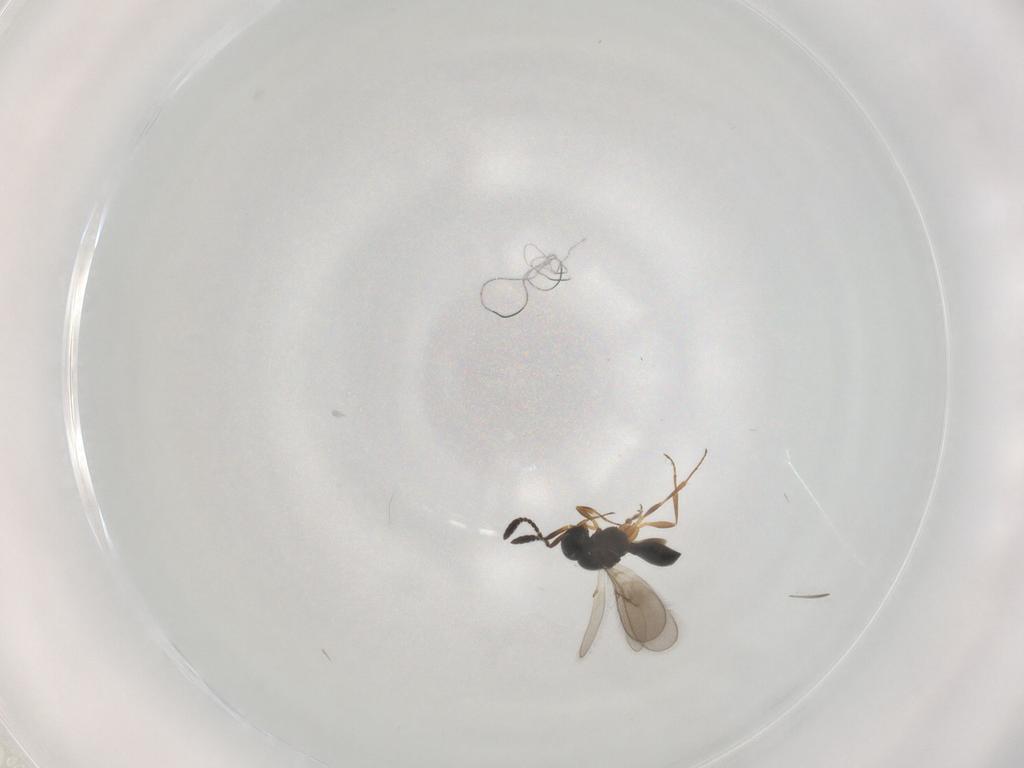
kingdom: Animalia
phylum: Arthropoda
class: Insecta
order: Hymenoptera
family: Scelionidae
